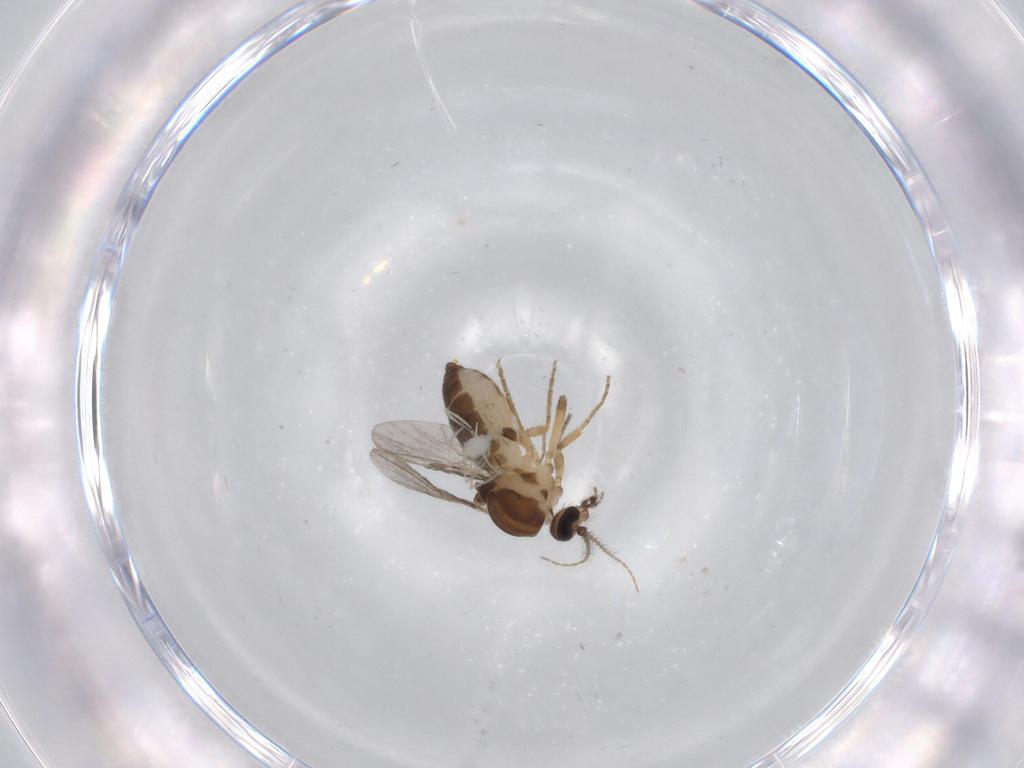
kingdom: Animalia
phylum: Arthropoda
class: Insecta
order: Diptera
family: Ceratopogonidae
